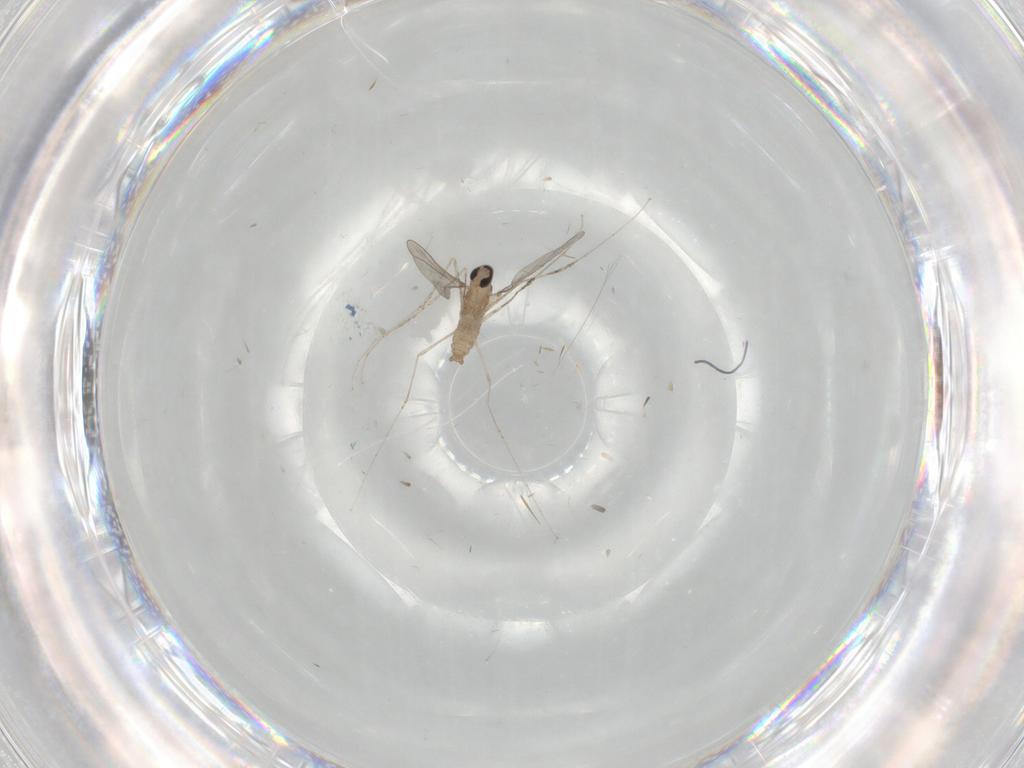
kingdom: Animalia
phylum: Arthropoda
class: Insecta
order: Diptera
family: Cecidomyiidae
